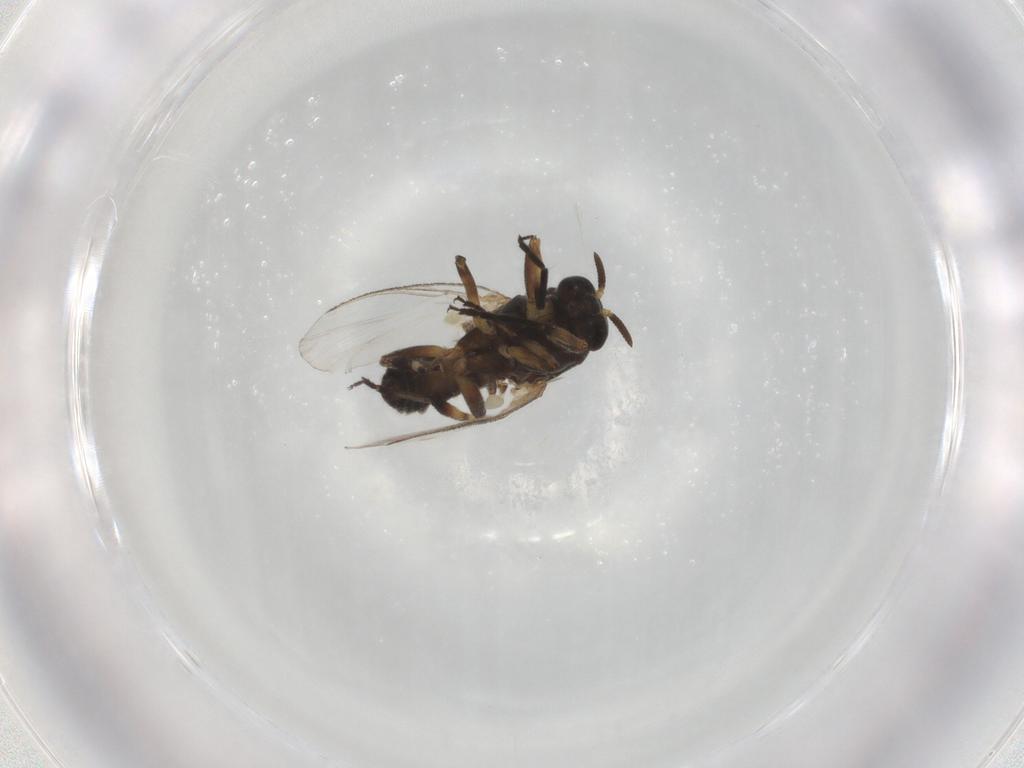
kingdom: Animalia
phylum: Arthropoda
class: Insecta
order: Diptera
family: Cecidomyiidae
